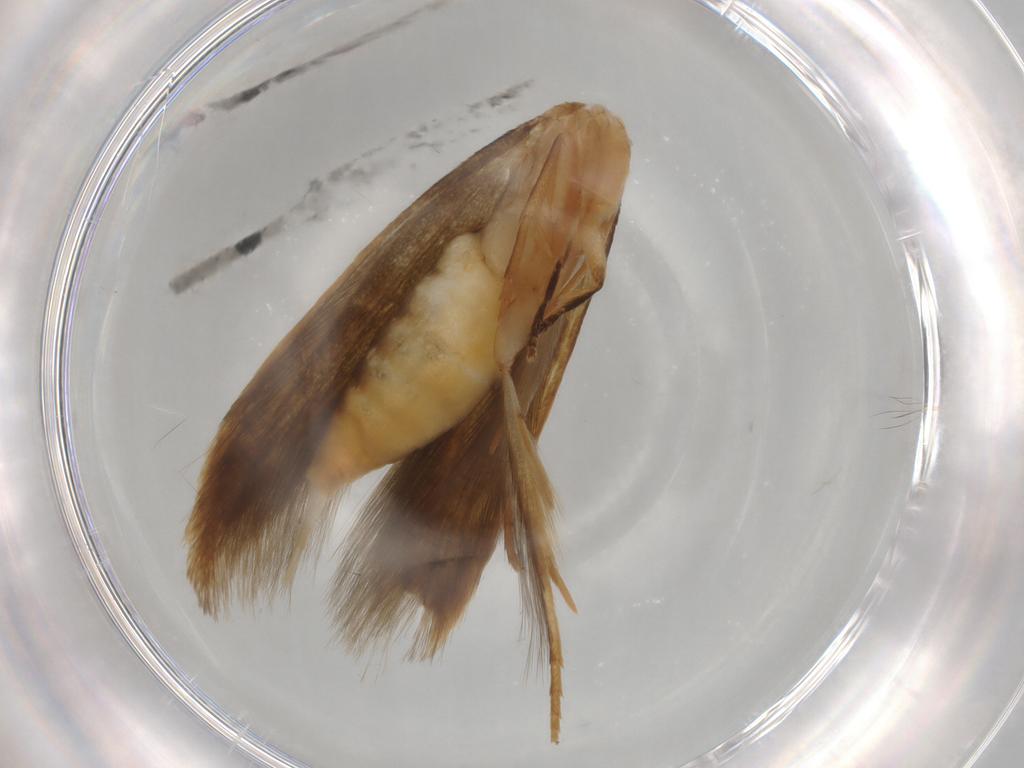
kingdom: Animalia
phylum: Arthropoda
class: Insecta
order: Lepidoptera
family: Tineidae
